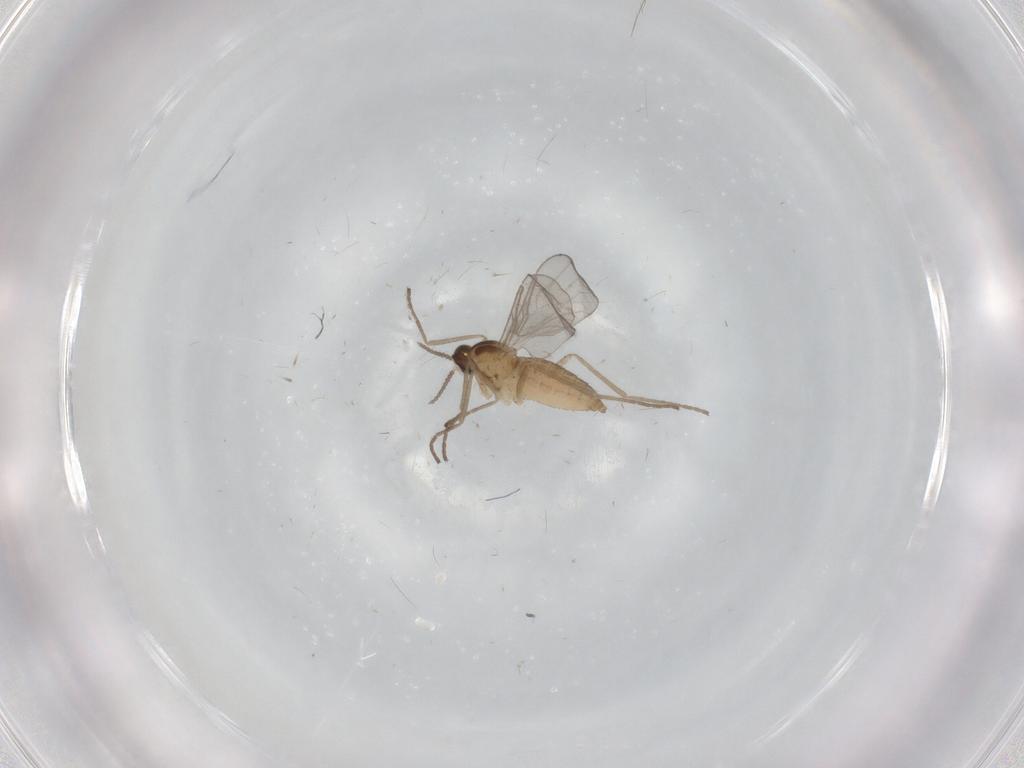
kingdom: Animalia
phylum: Arthropoda
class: Insecta
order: Diptera
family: Cecidomyiidae
